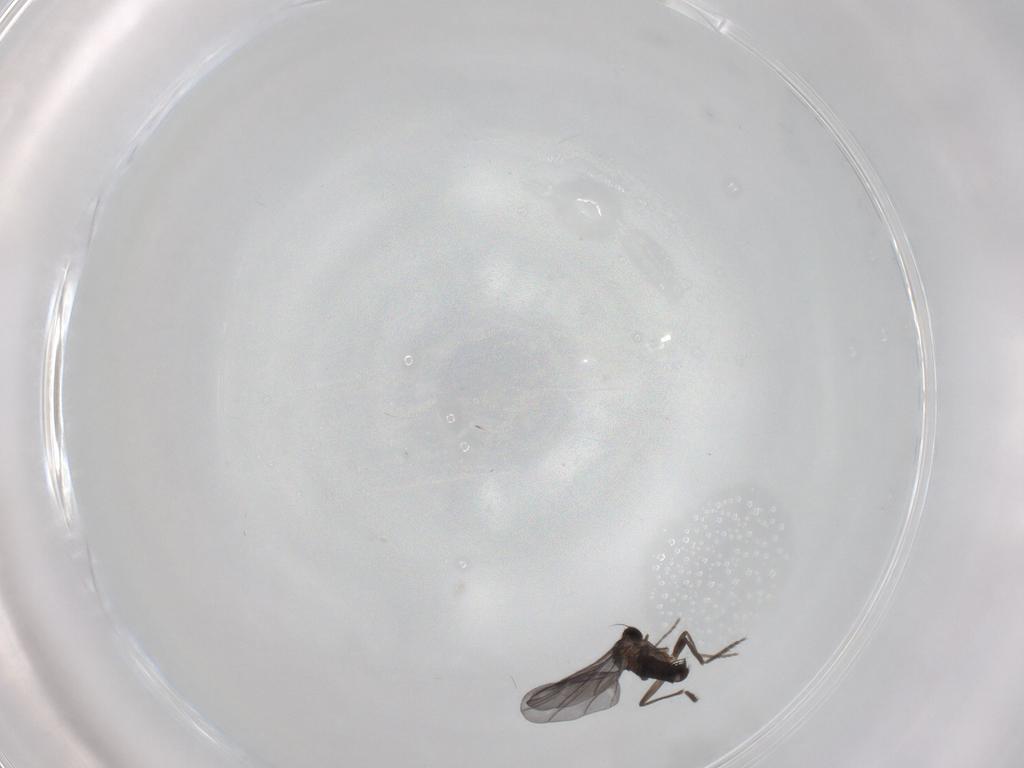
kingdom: Animalia
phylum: Arthropoda
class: Insecta
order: Diptera
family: Phoridae
